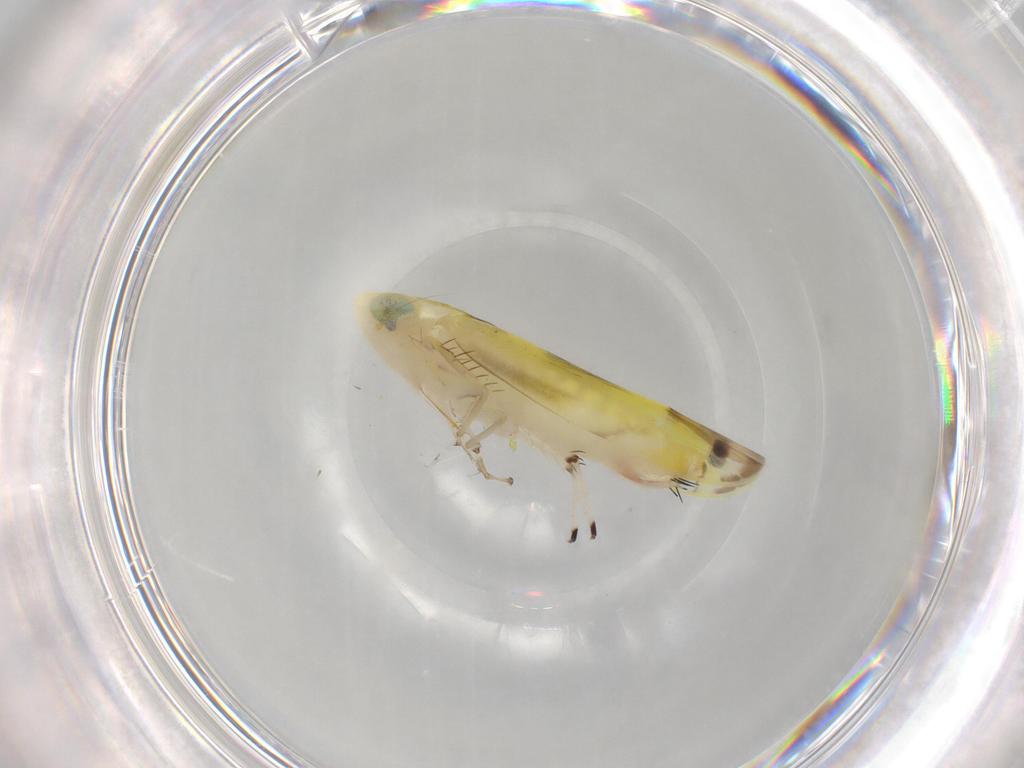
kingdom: Animalia
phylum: Arthropoda
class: Insecta
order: Hemiptera
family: Cicadellidae
